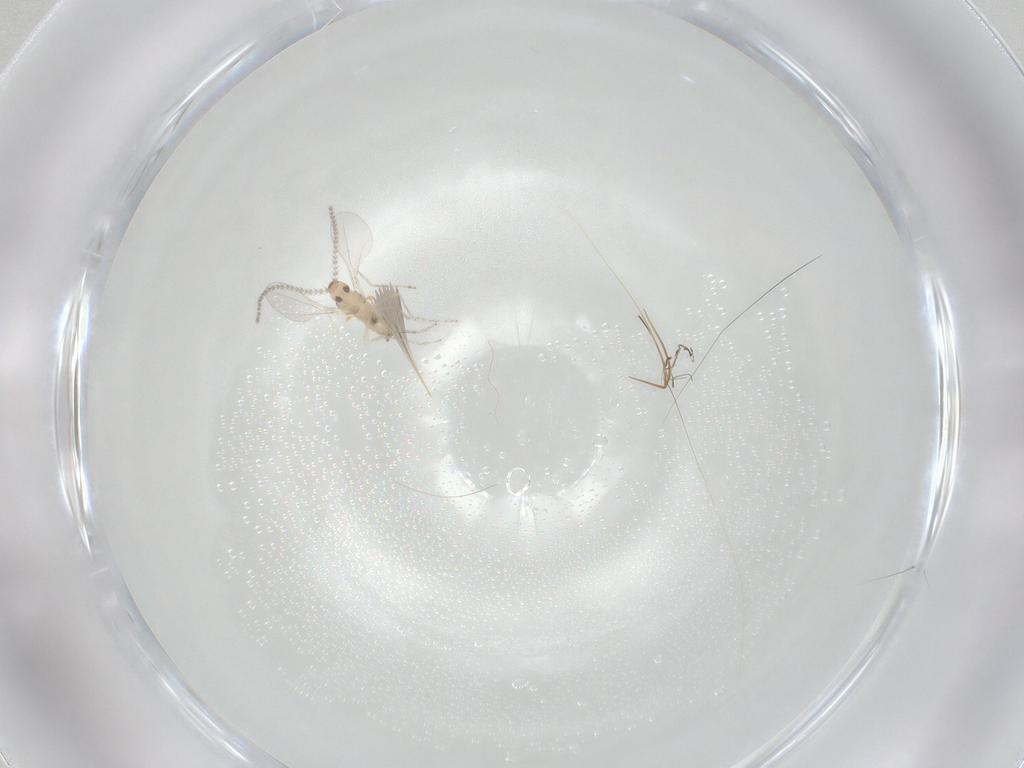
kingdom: Animalia
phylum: Arthropoda
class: Insecta
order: Diptera
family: Cecidomyiidae
